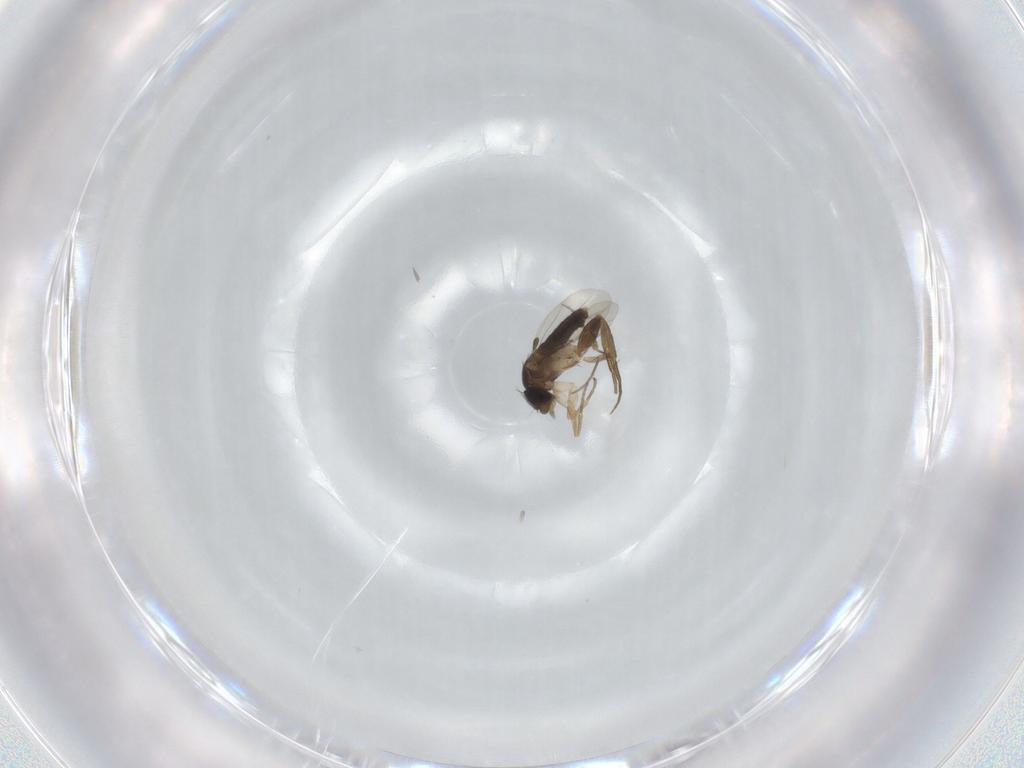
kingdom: Animalia
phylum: Arthropoda
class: Insecta
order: Diptera
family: Phoridae
